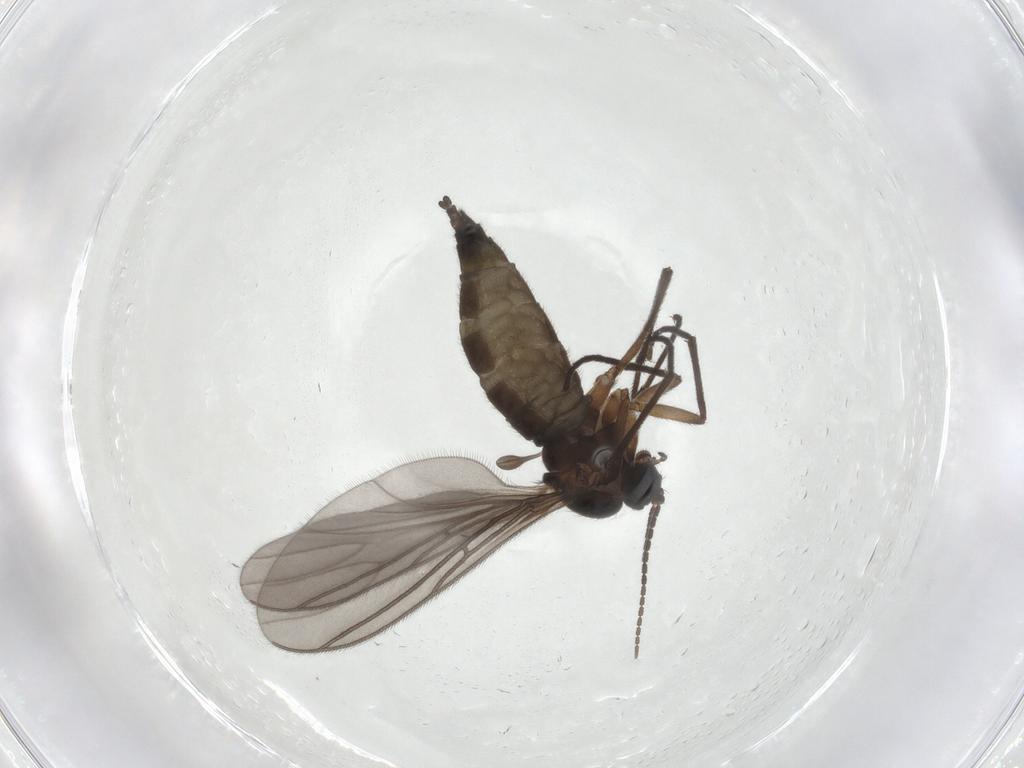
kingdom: Animalia
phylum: Arthropoda
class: Insecta
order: Diptera
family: Sciaridae
